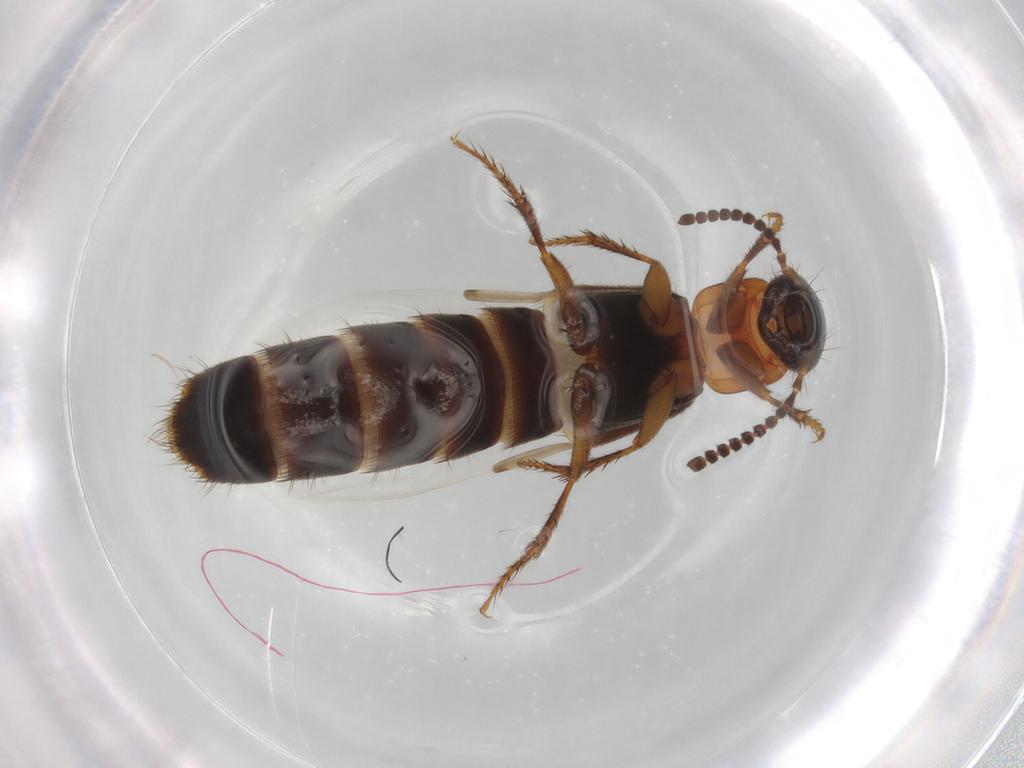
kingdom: Animalia
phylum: Arthropoda
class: Insecta
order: Coleoptera
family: Staphylinidae
